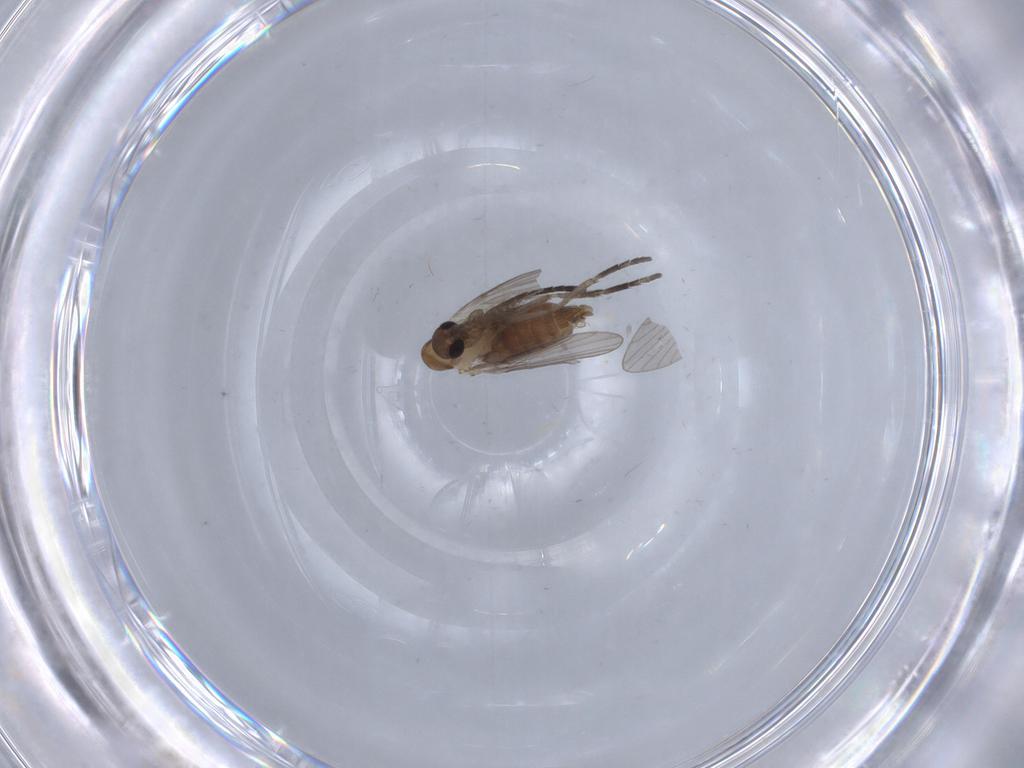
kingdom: Animalia
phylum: Arthropoda
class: Insecta
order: Diptera
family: Psychodidae
